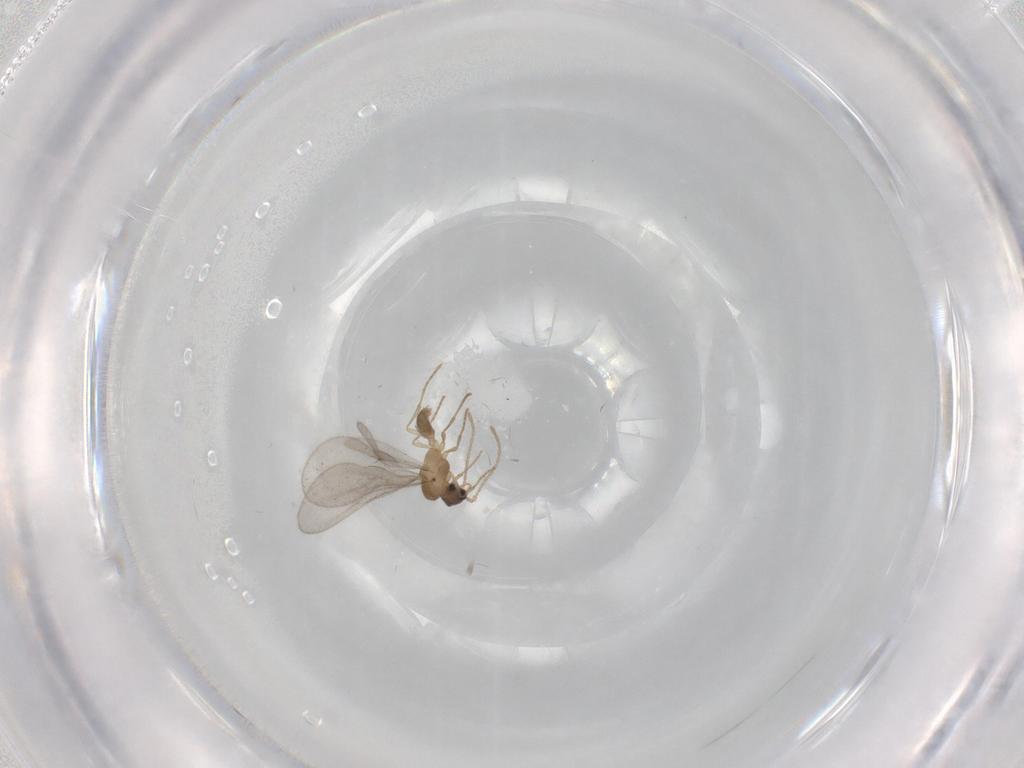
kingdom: Animalia
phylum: Arthropoda
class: Insecta
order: Hymenoptera
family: Formicidae
